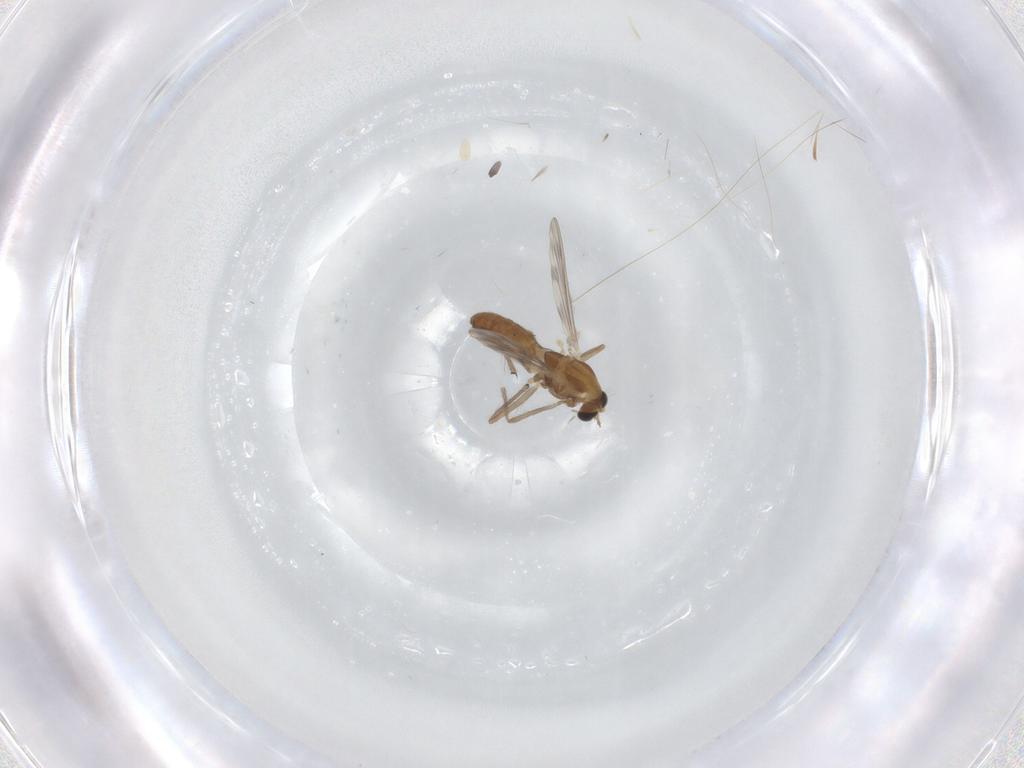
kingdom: Animalia
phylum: Arthropoda
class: Insecta
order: Diptera
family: Chironomidae
